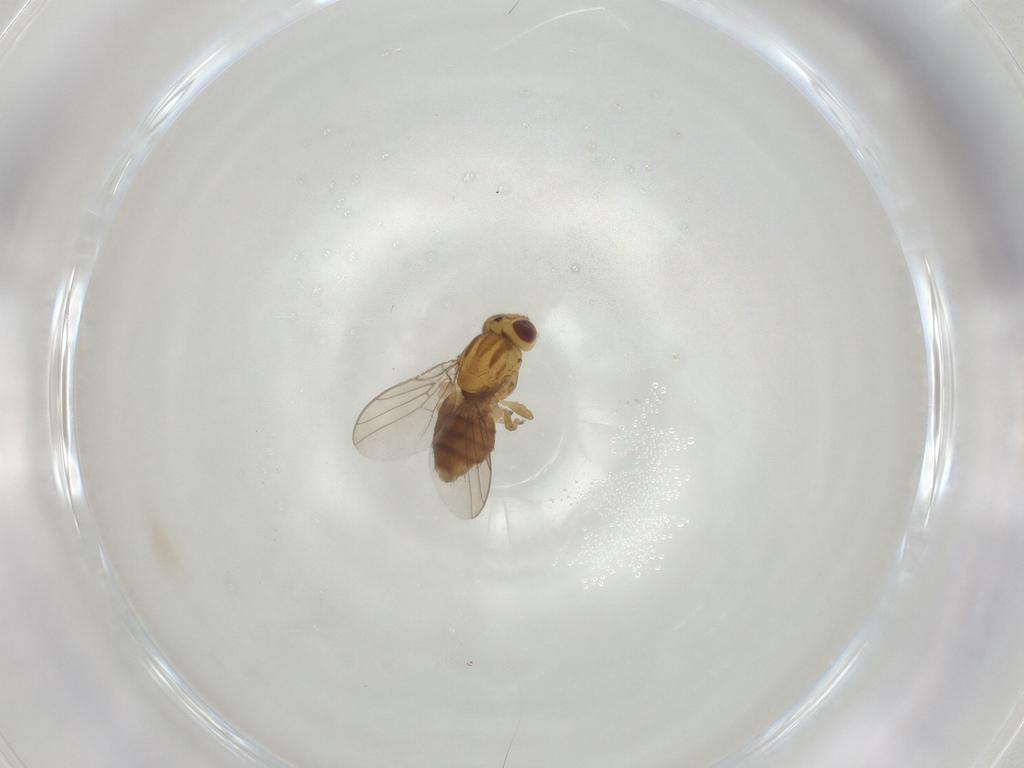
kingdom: Animalia
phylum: Arthropoda
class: Insecta
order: Diptera
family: Chloropidae
